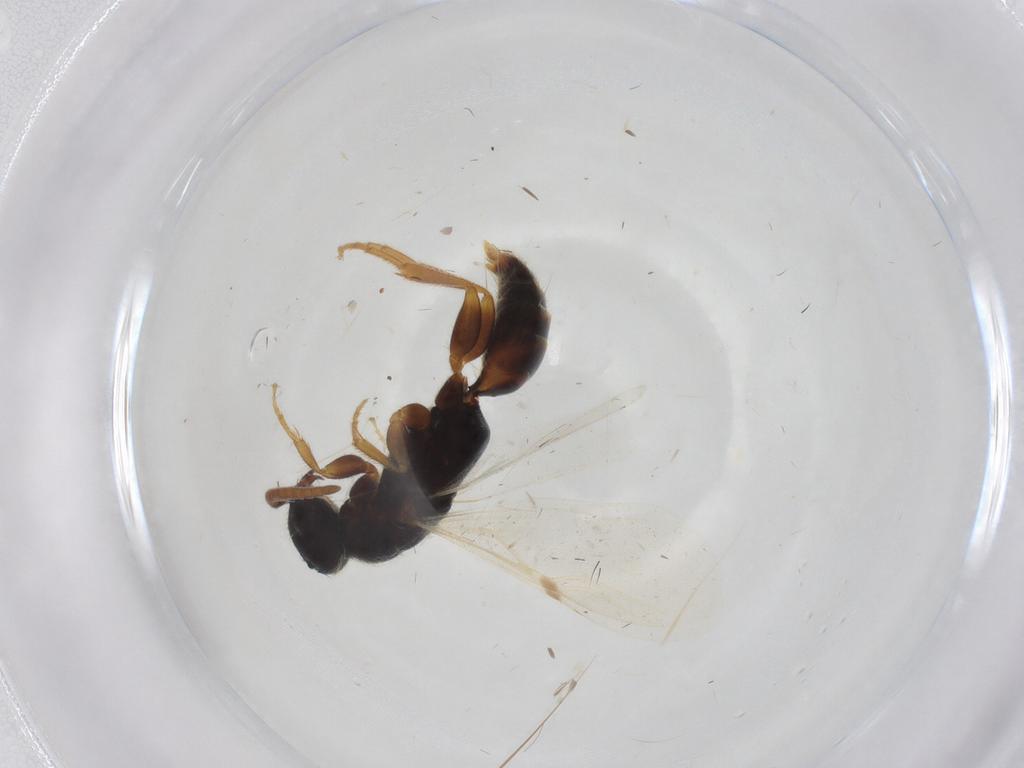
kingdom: Animalia
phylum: Arthropoda
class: Insecta
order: Hymenoptera
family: Bethylidae
